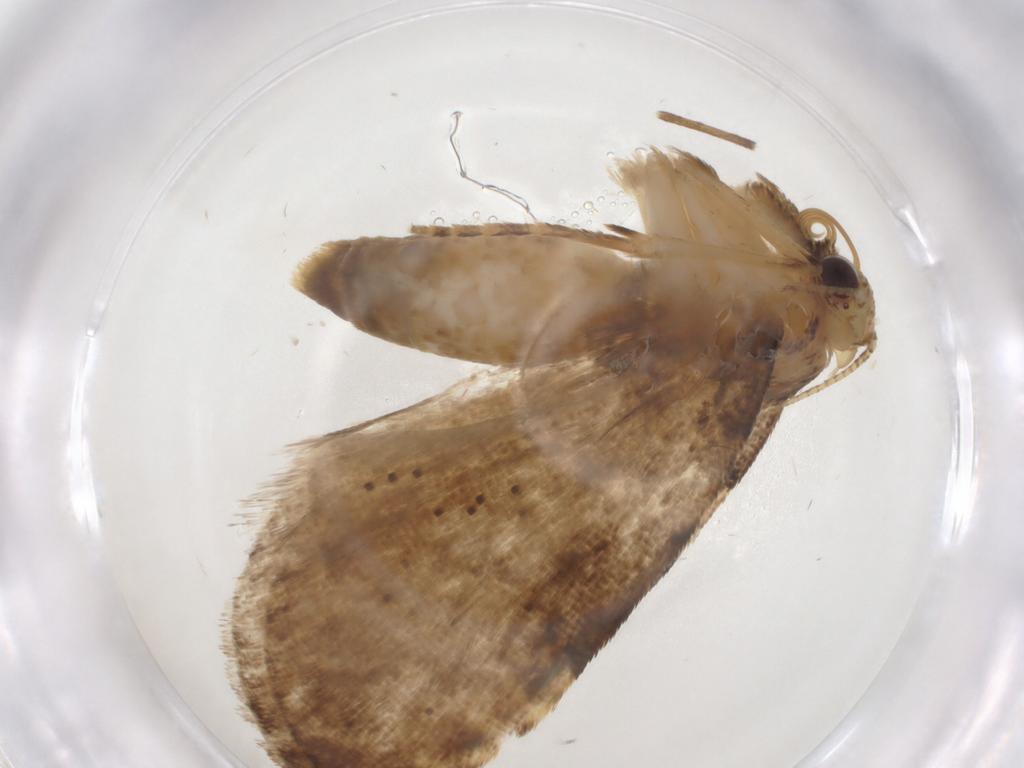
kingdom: Animalia
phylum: Arthropoda
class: Insecta
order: Lepidoptera
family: Erebidae
